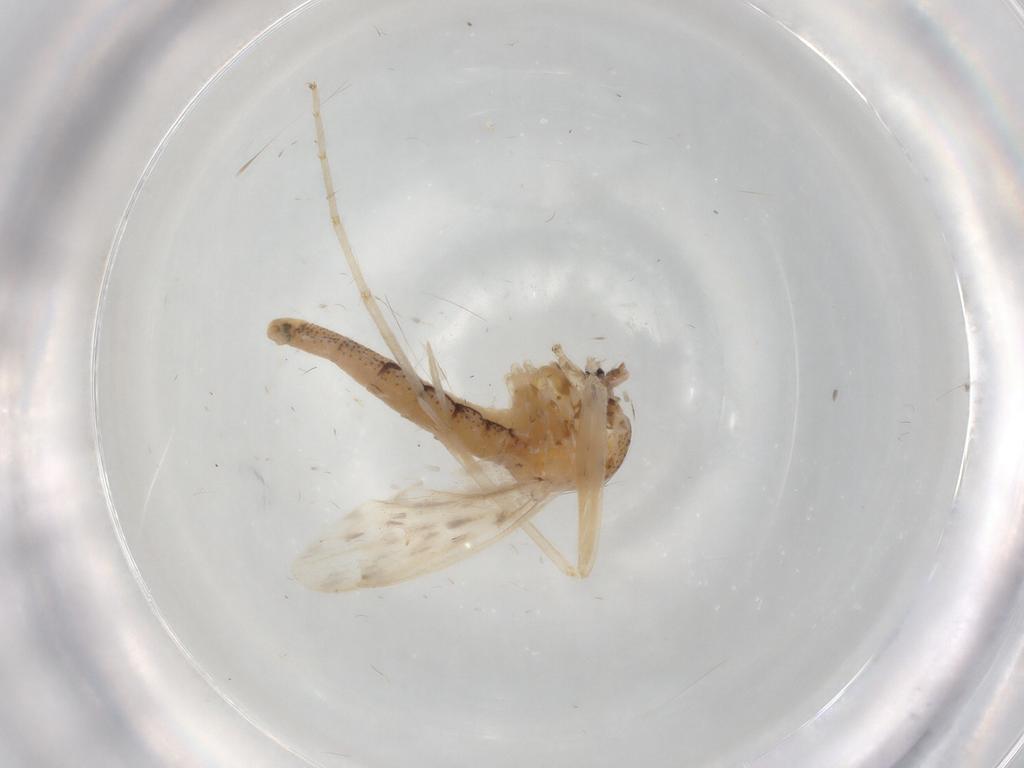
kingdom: Animalia
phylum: Arthropoda
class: Insecta
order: Diptera
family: Chaoboridae
